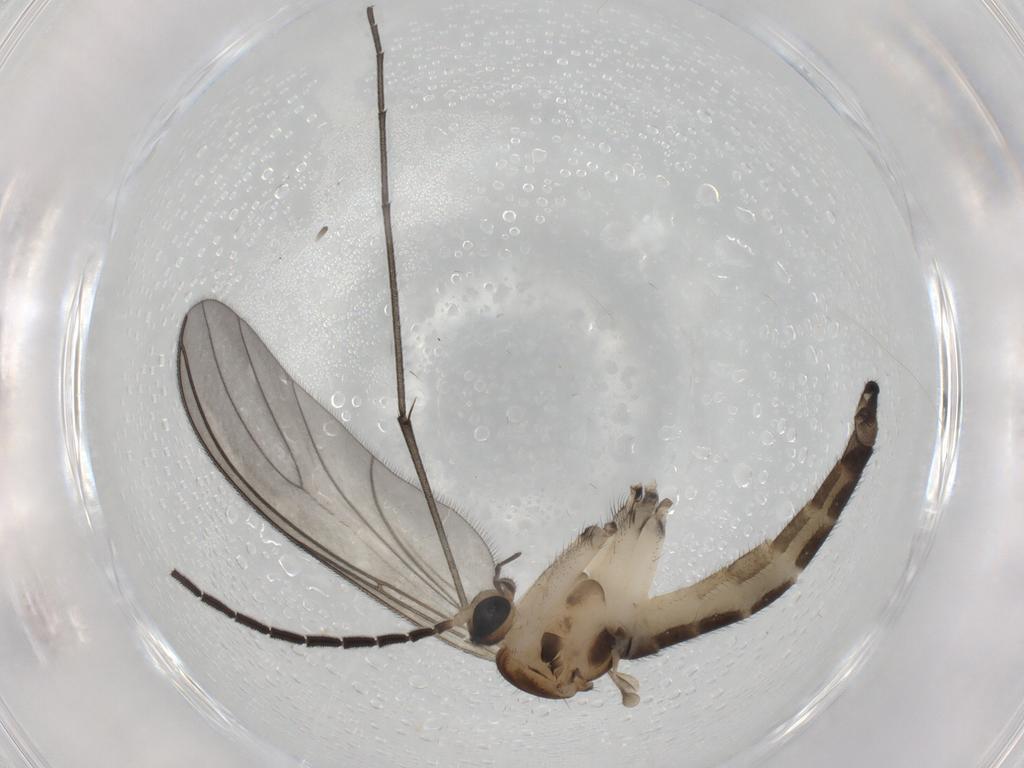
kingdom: Animalia
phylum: Arthropoda
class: Insecta
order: Diptera
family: Sciaridae
